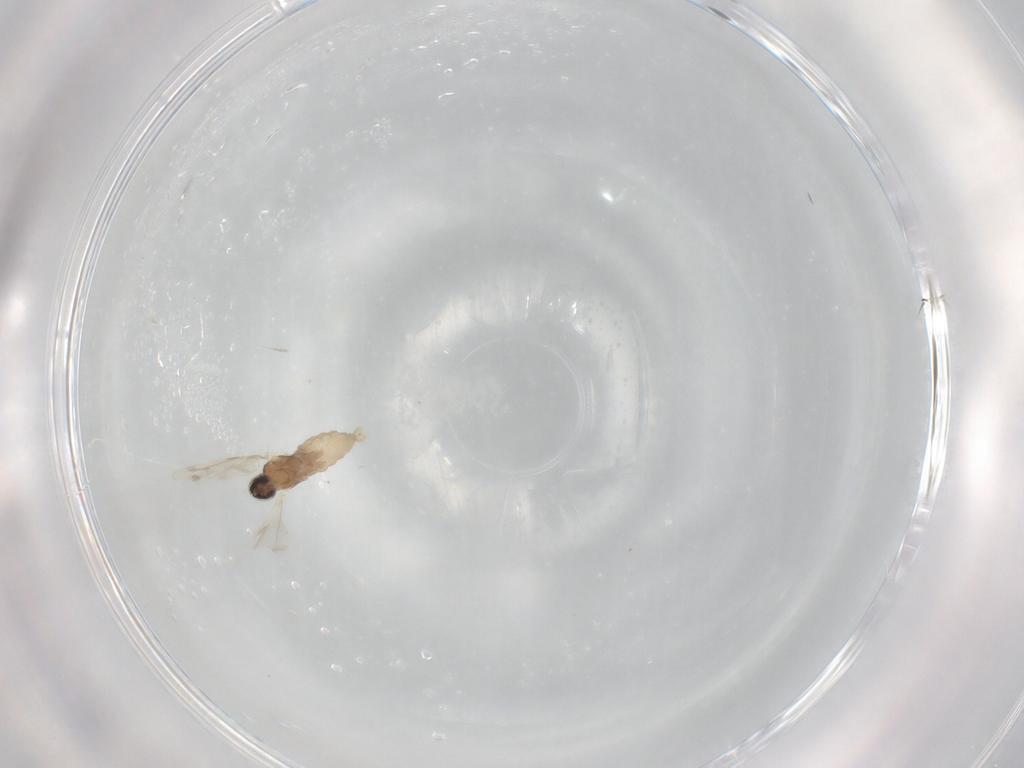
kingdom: Animalia
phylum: Arthropoda
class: Insecta
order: Diptera
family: Cecidomyiidae
